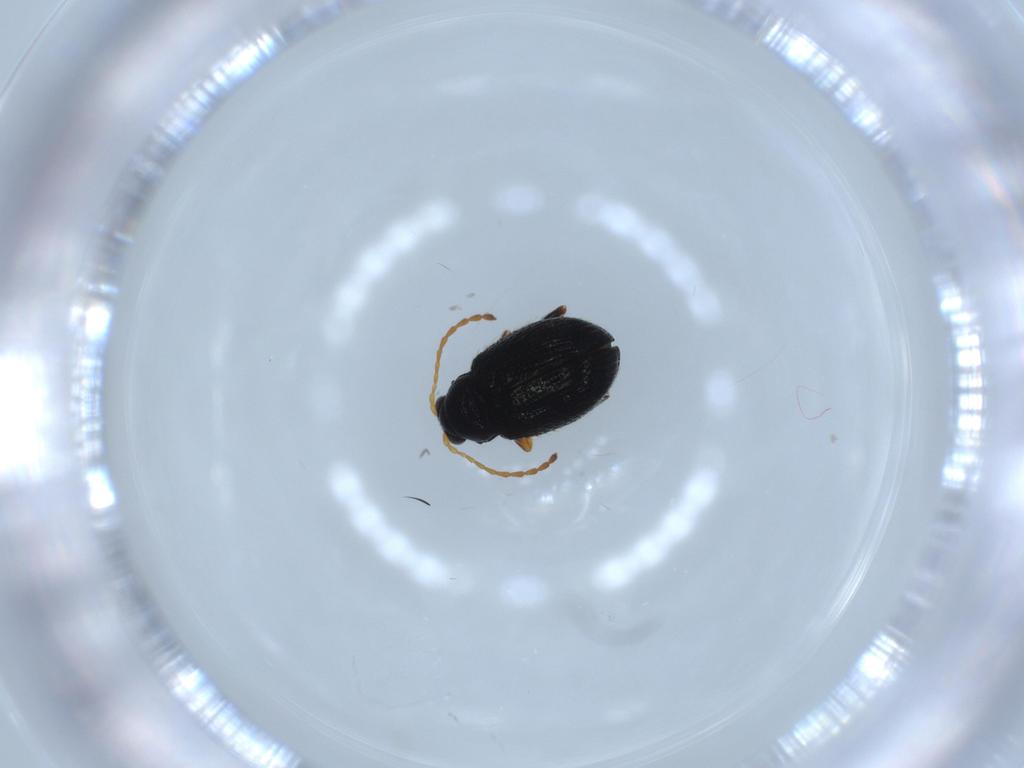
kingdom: Animalia
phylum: Arthropoda
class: Insecta
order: Coleoptera
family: Chrysomelidae
